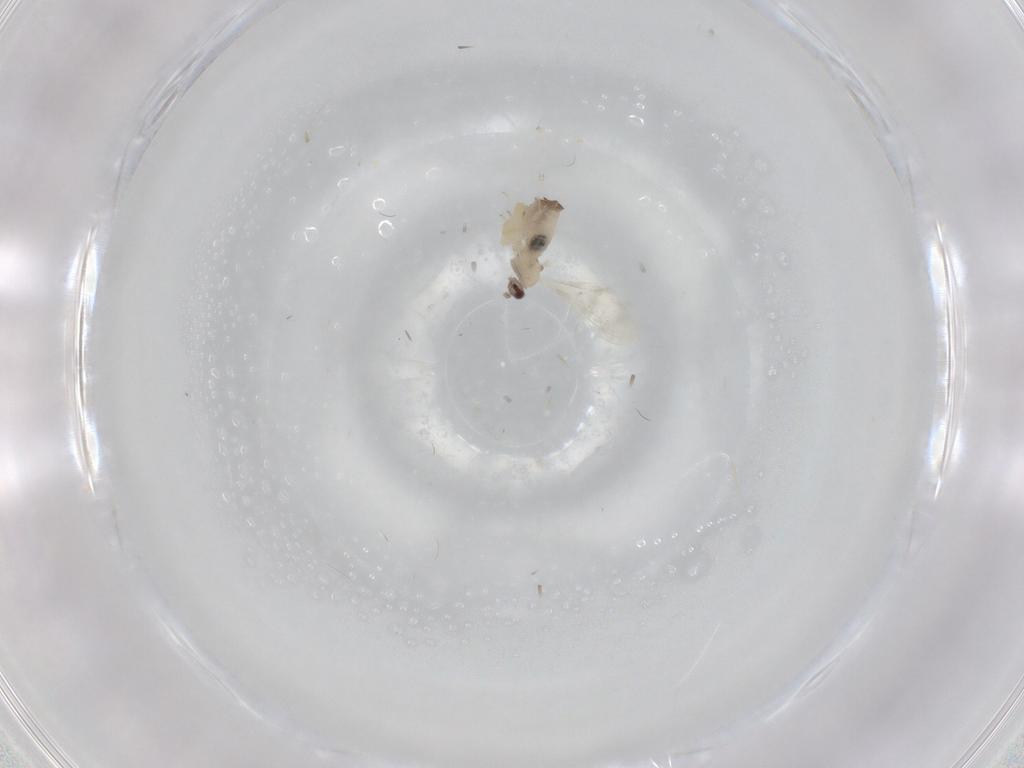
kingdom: Animalia
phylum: Arthropoda
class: Insecta
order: Diptera
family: Cecidomyiidae
